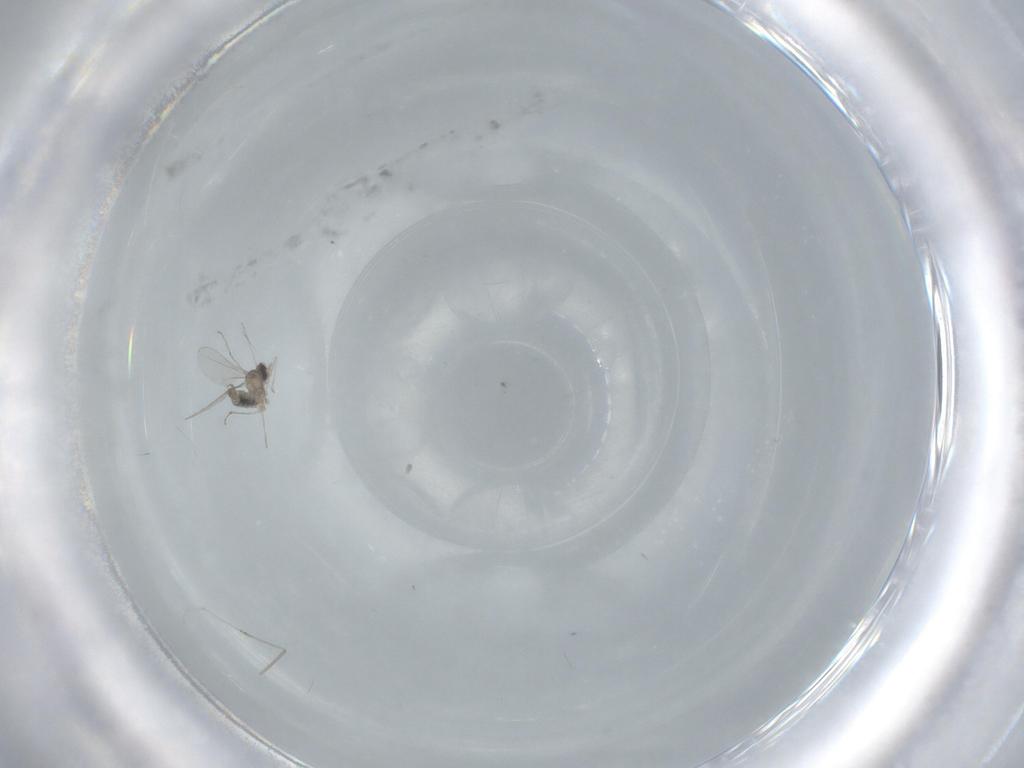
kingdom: Animalia
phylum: Arthropoda
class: Insecta
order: Diptera
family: Cecidomyiidae
